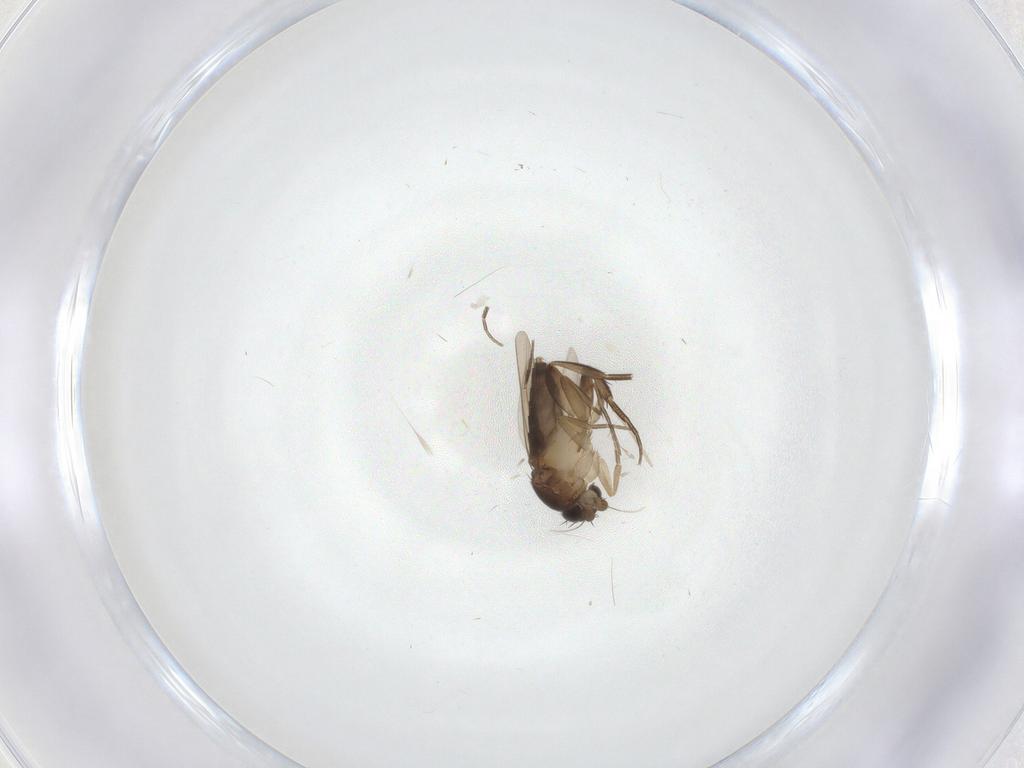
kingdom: Animalia
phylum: Arthropoda
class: Insecta
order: Diptera
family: Phoridae
